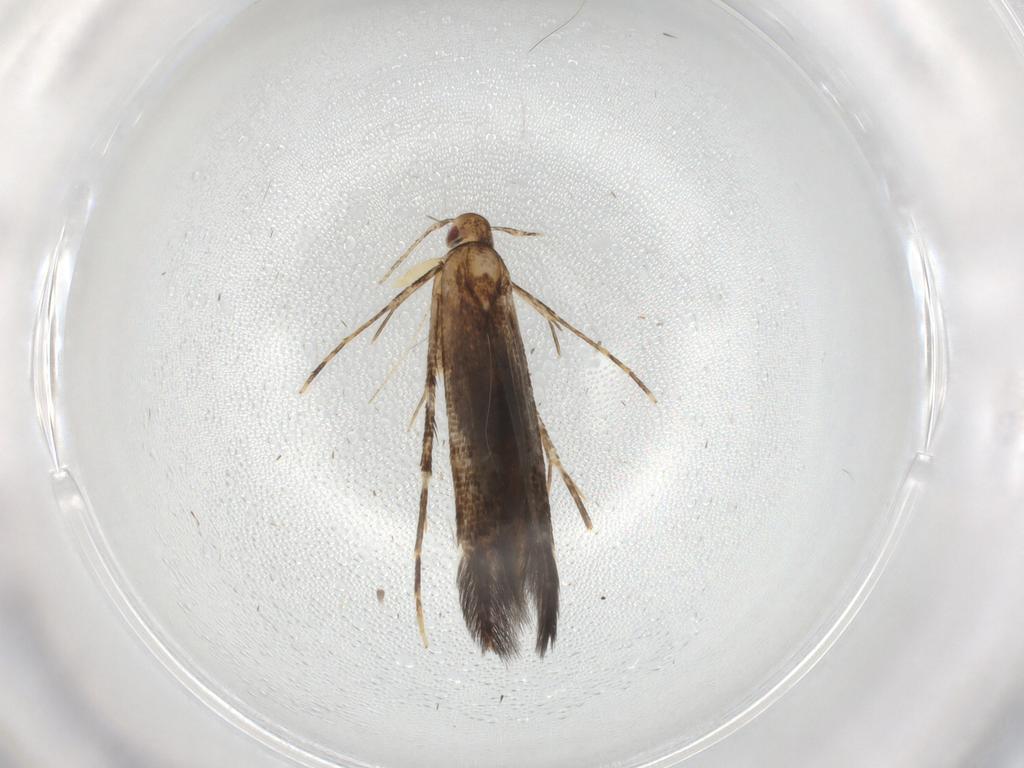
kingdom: Animalia
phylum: Arthropoda
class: Insecta
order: Lepidoptera
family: Cosmopterigidae
